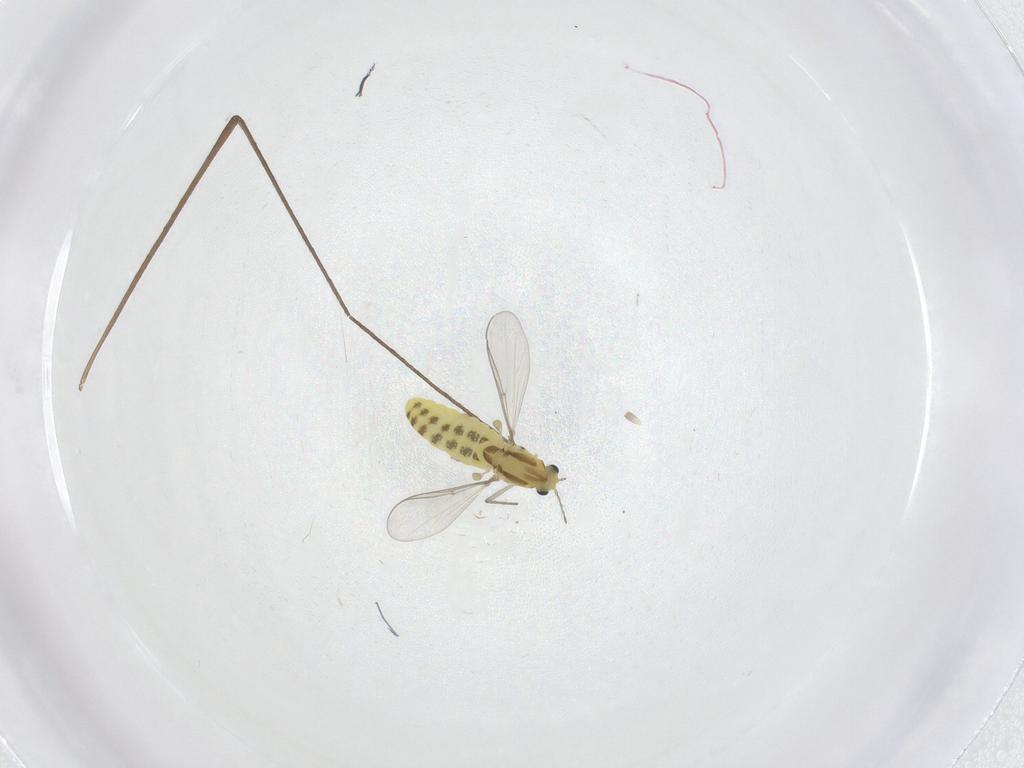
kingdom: Animalia
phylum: Arthropoda
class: Insecta
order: Diptera
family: Chironomidae
